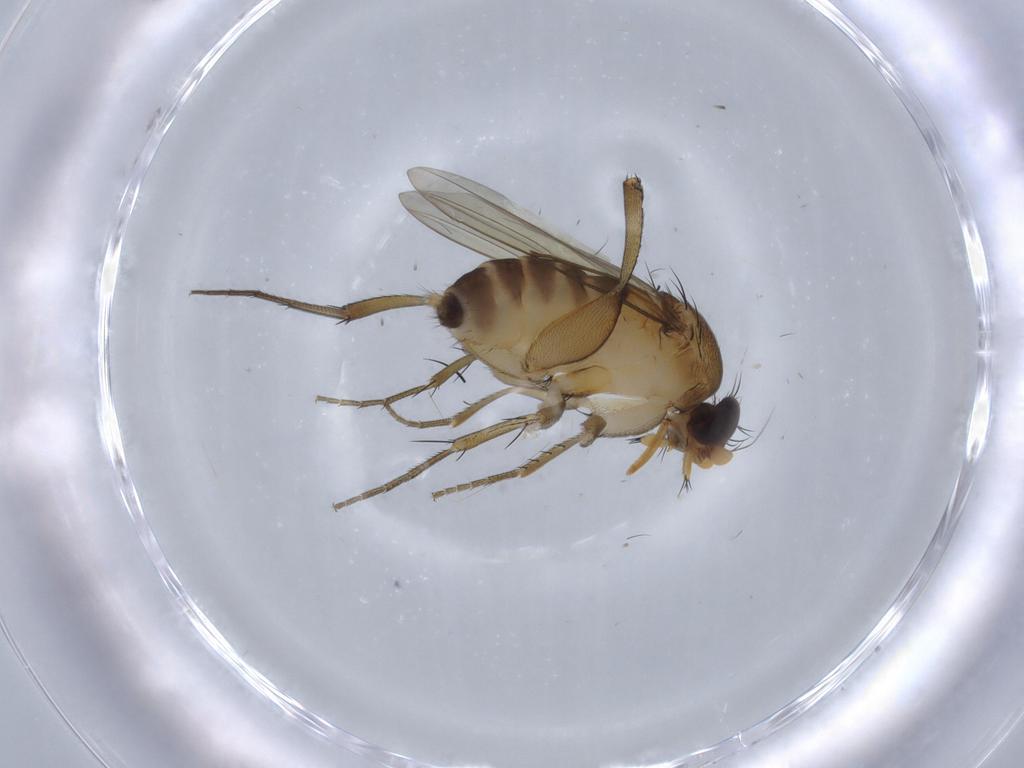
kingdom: Animalia
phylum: Arthropoda
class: Insecta
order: Diptera
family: Phoridae
